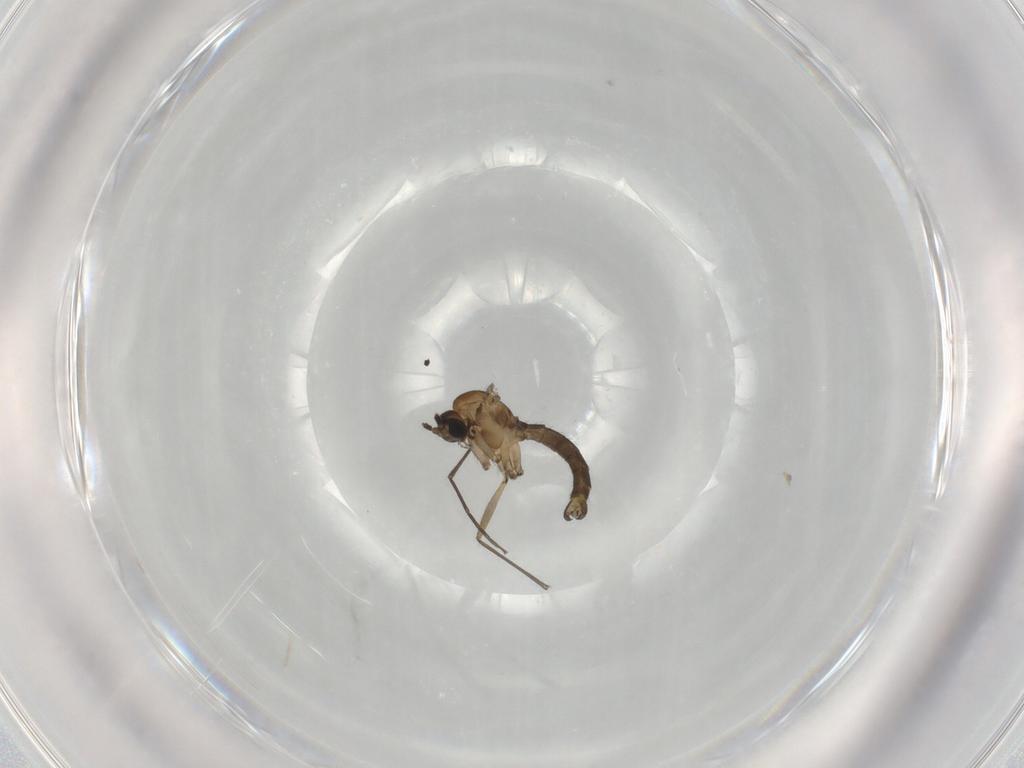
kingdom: Animalia
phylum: Arthropoda
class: Insecta
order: Diptera
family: Sciaridae
